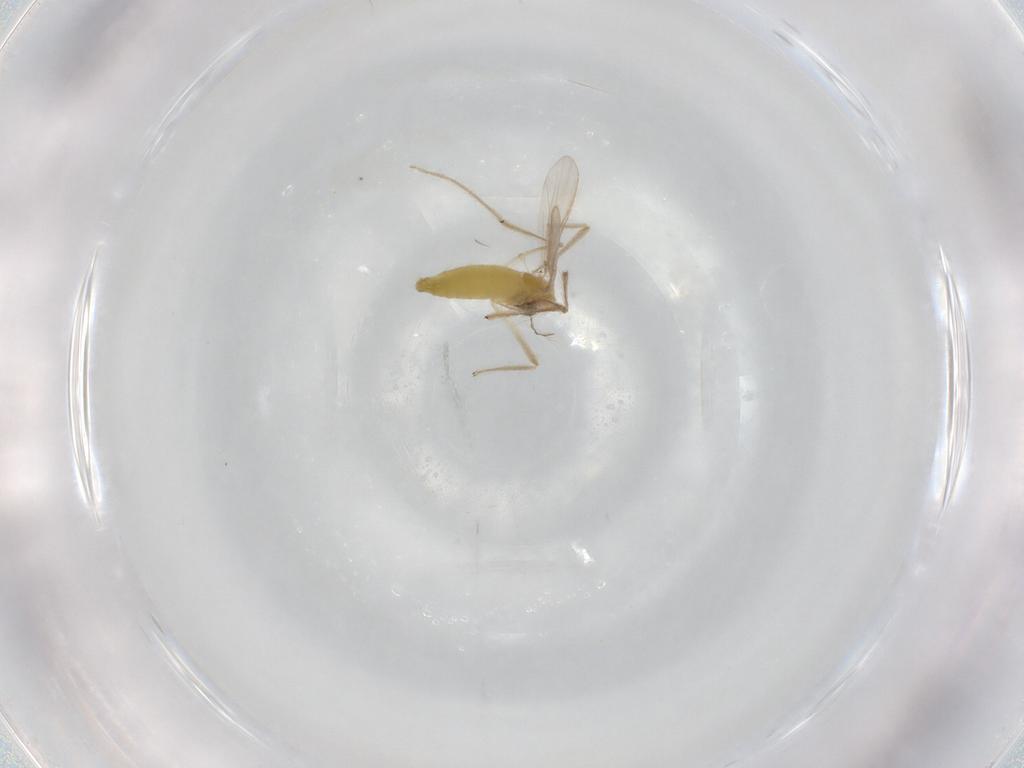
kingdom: Animalia
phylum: Arthropoda
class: Insecta
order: Diptera
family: Chironomidae
